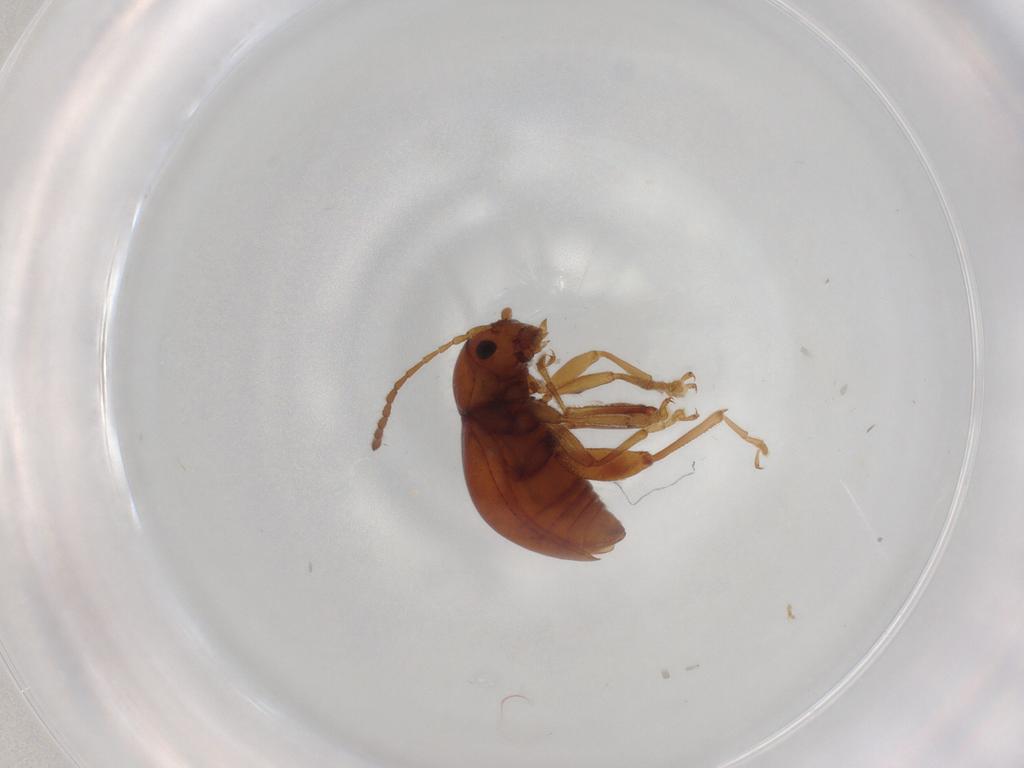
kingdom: Animalia
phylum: Arthropoda
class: Insecta
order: Coleoptera
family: Chrysomelidae
